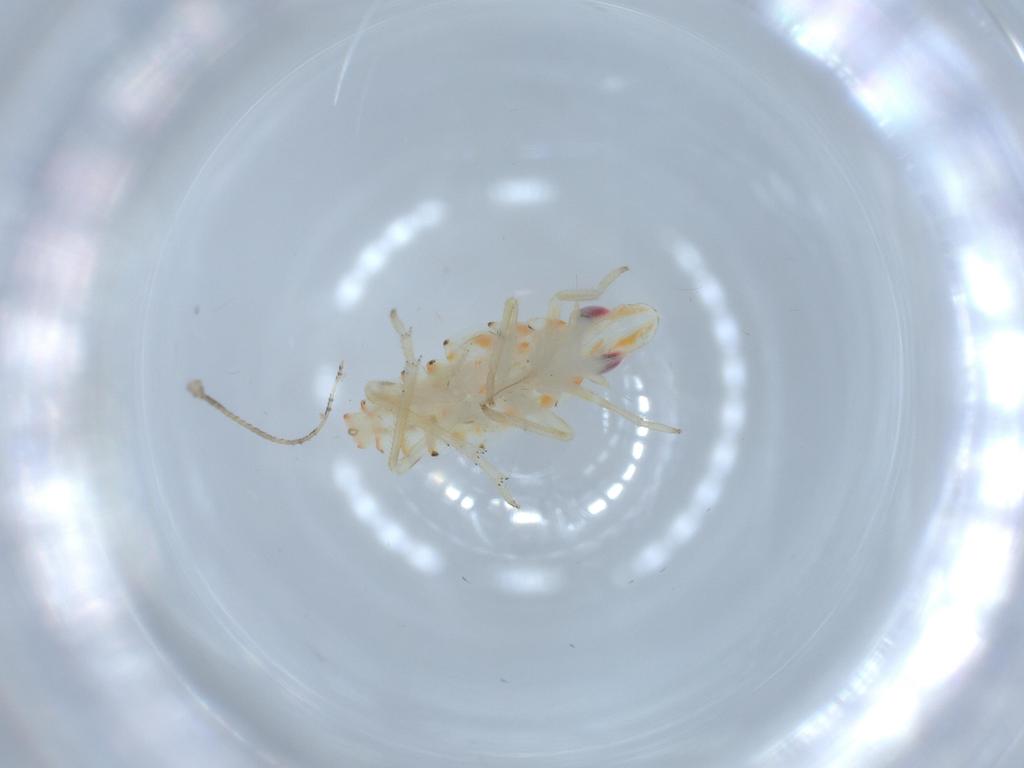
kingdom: Animalia
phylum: Arthropoda
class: Insecta
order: Hemiptera
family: Tropiduchidae
